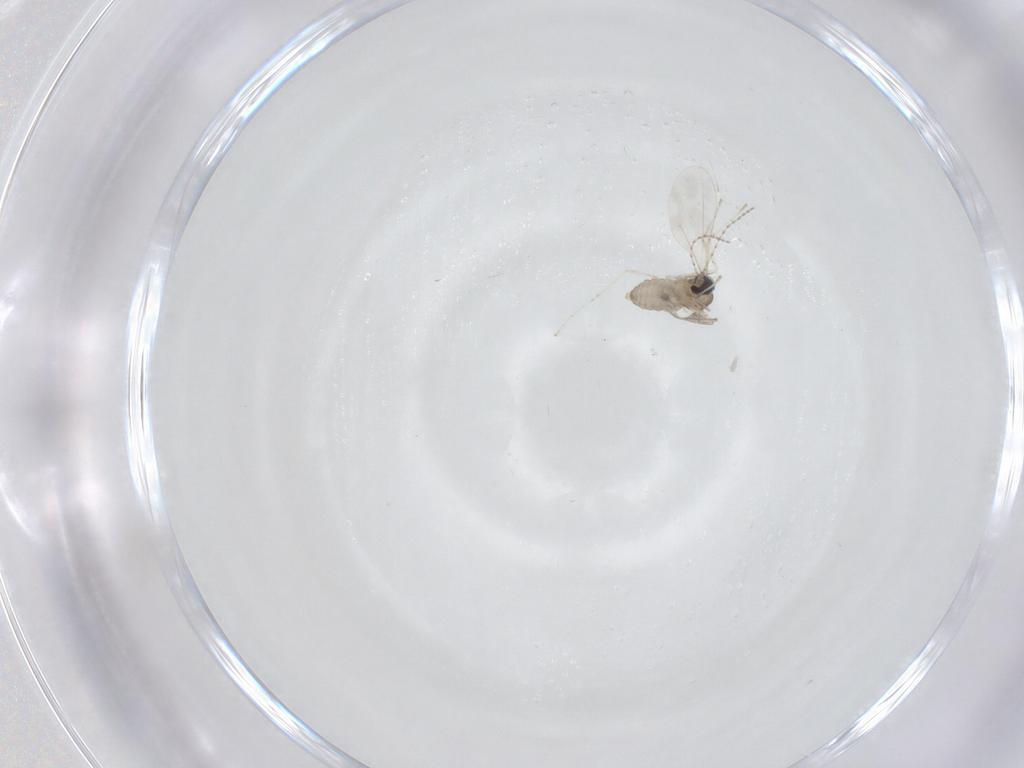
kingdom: Animalia
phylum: Arthropoda
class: Insecta
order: Diptera
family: Cecidomyiidae
